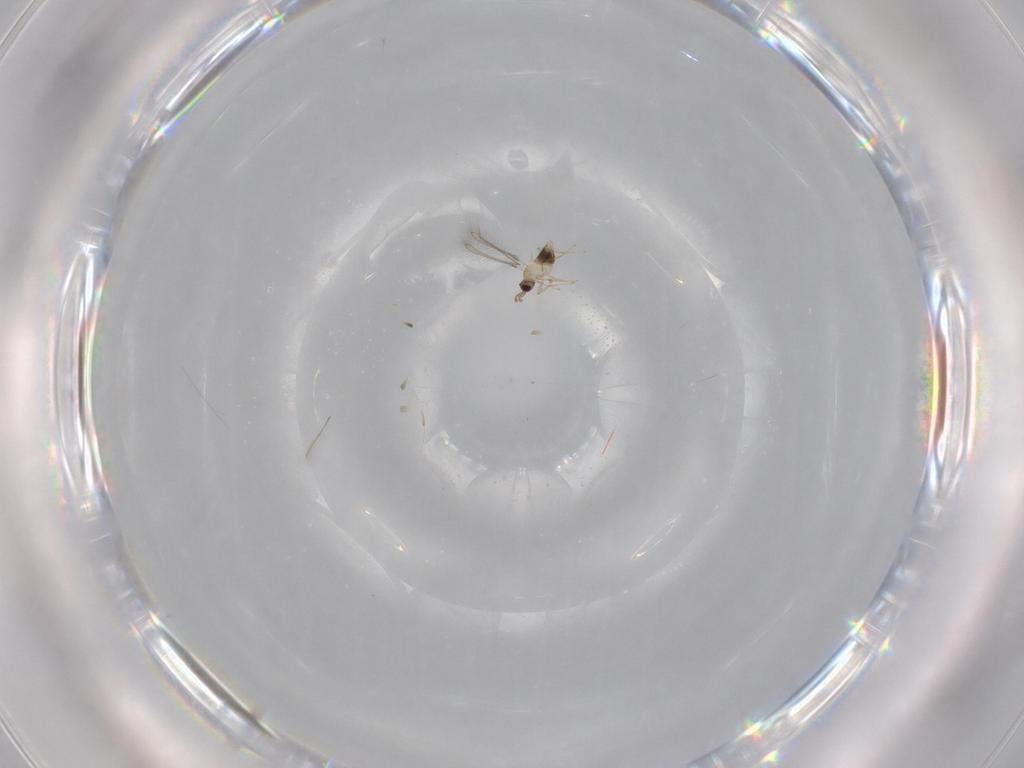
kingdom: Animalia
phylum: Arthropoda
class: Insecta
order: Hymenoptera
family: Mymaridae
